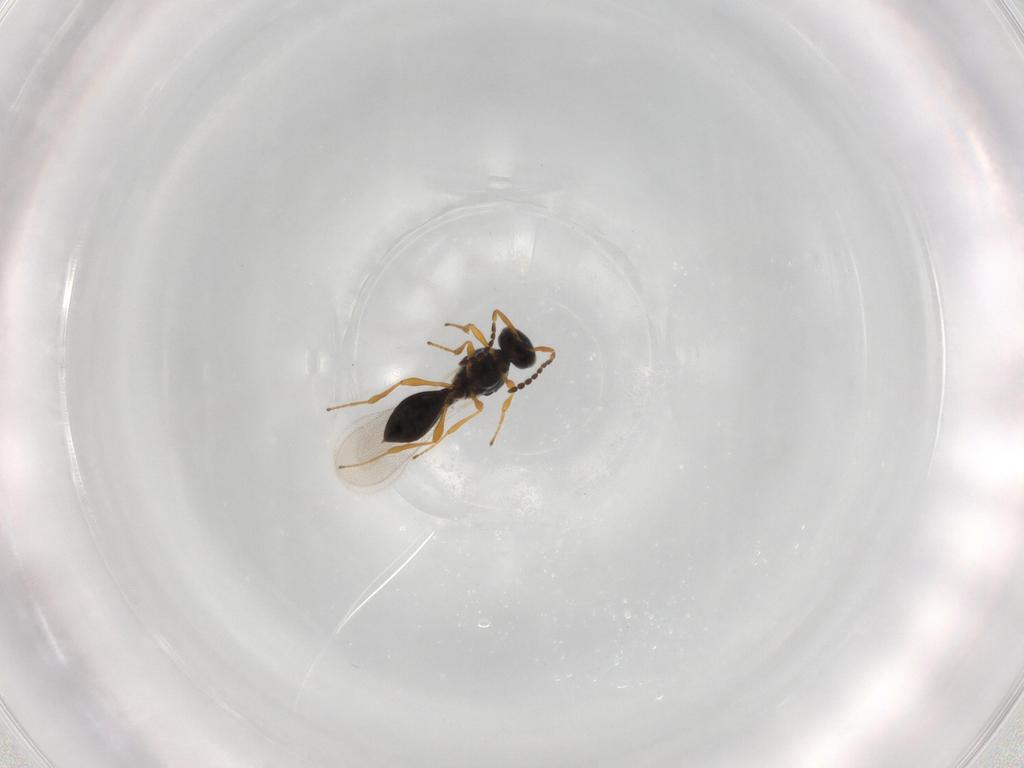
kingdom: Animalia
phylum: Arthropoda
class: Insecta
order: Diptera
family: Mythicomyiidae
